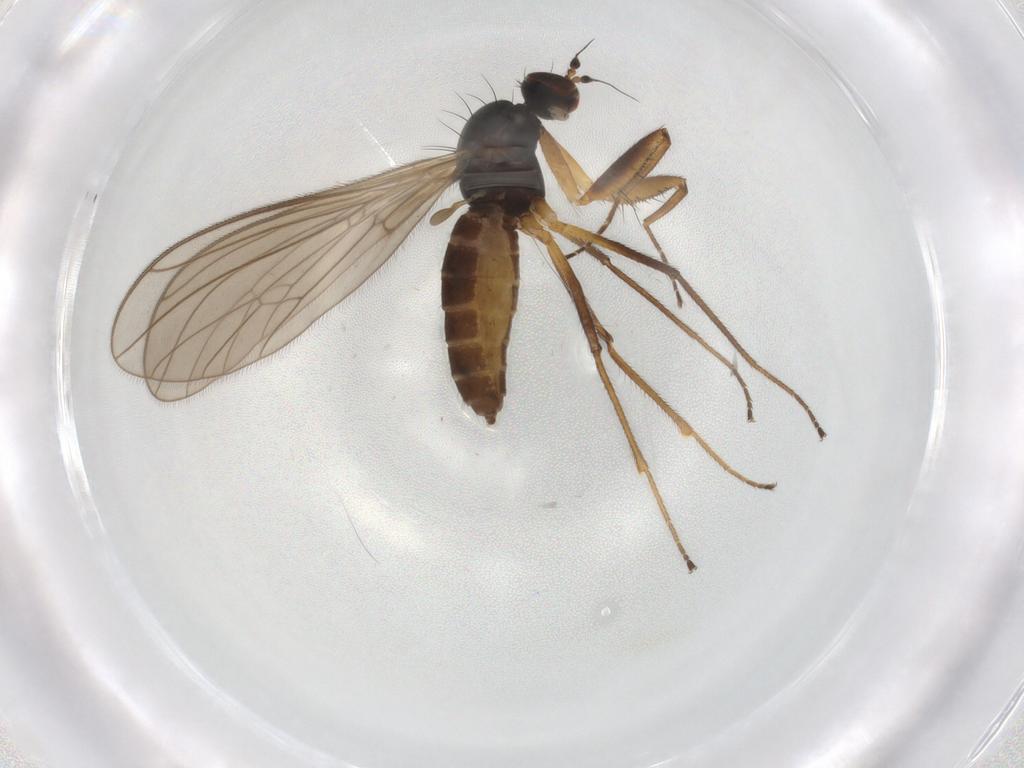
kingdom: Animalia
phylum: Arthropoda
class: Insecta
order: Diptera
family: Empididae
